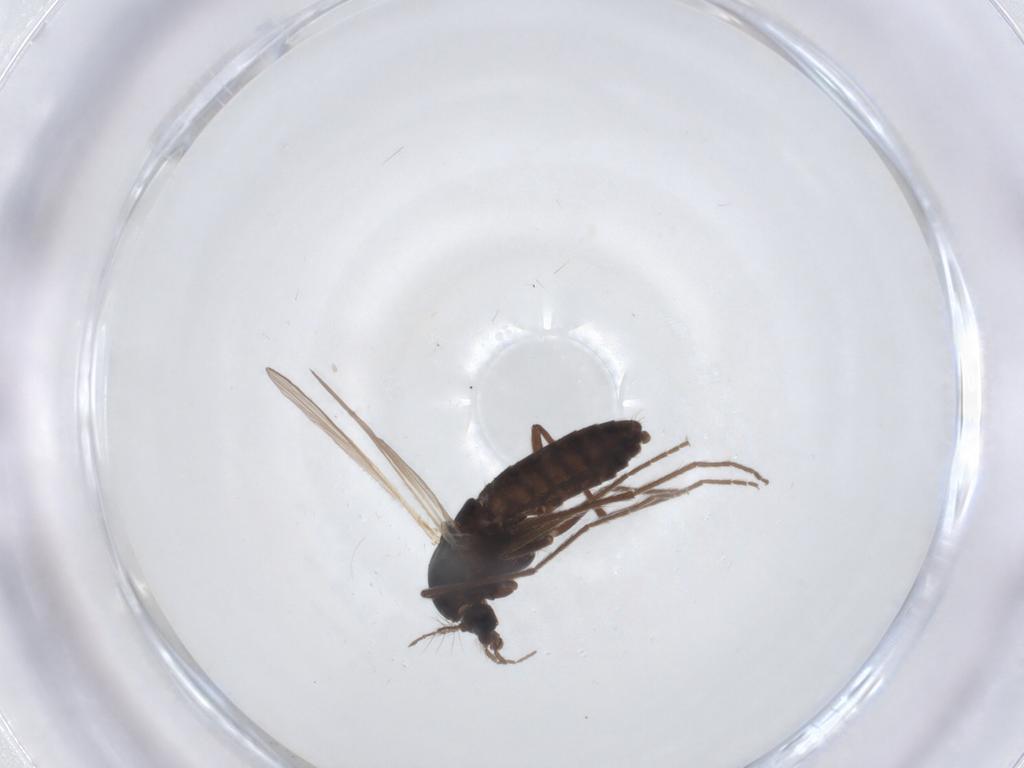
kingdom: Animalia
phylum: Arthropoda
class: Insecta
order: Diptera
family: Chironomidae
